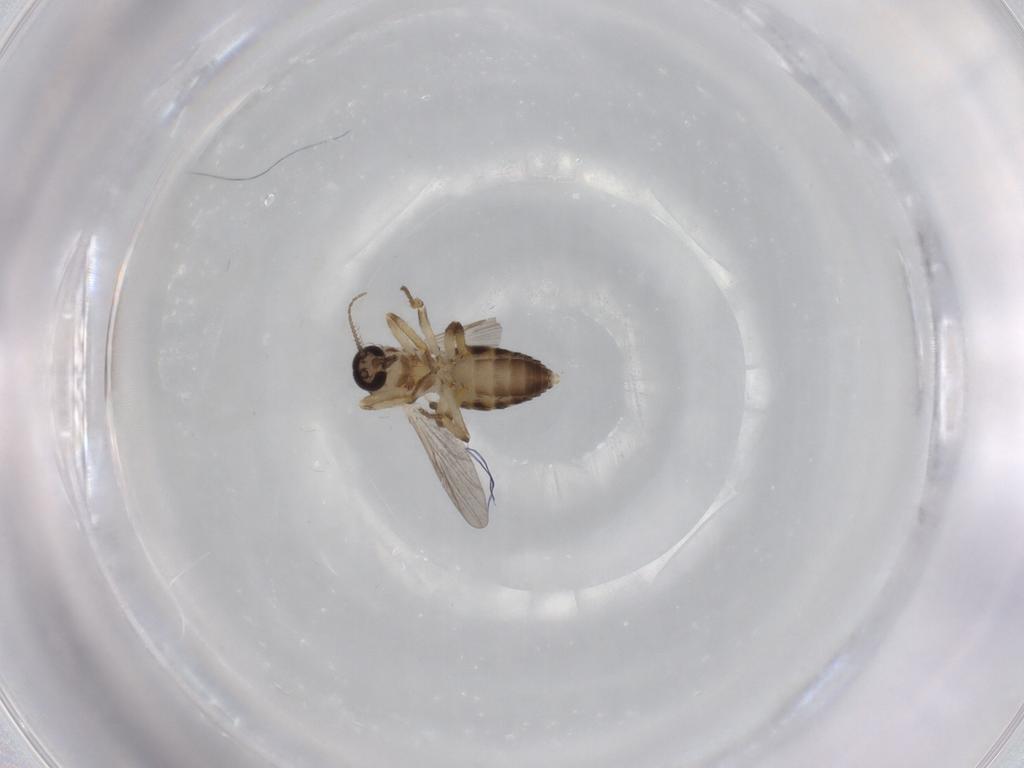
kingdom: Animalia
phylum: Arthropoda
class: Insecta
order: Diptera
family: Ceratopogonidae
